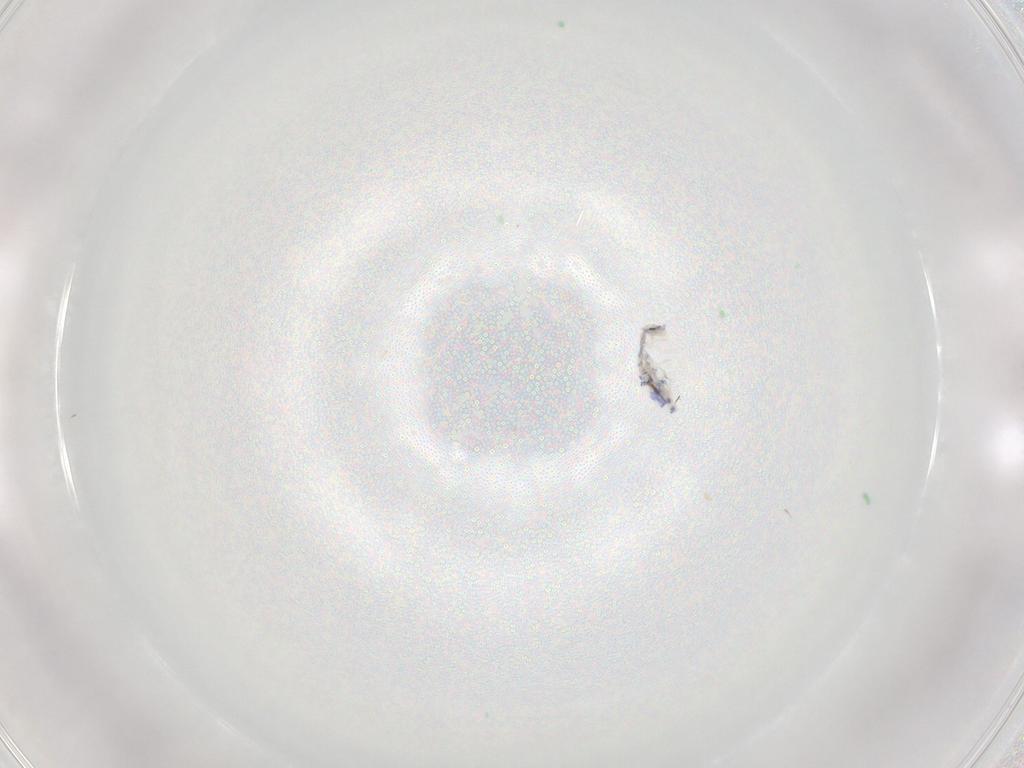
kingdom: Animalia
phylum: Arthropoda
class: Collembola
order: Entomobryomorpha
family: Entomobryidae
